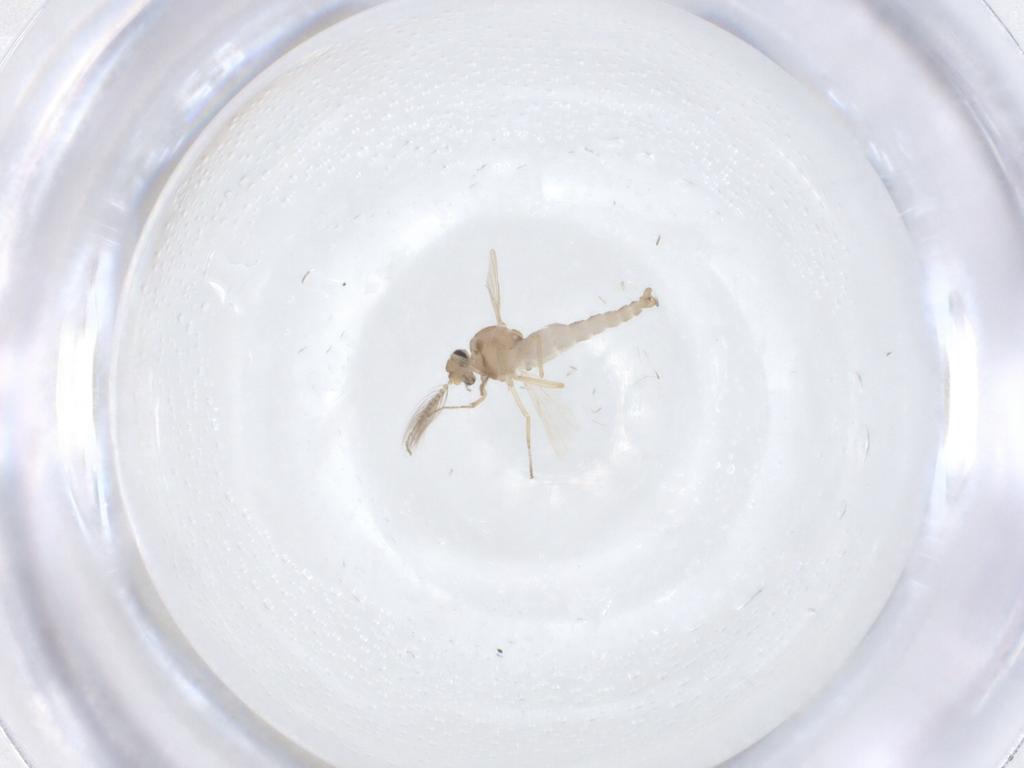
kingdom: Animalia
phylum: Arthropoda
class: Insecta
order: Diptera
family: Ceratopogonidae
